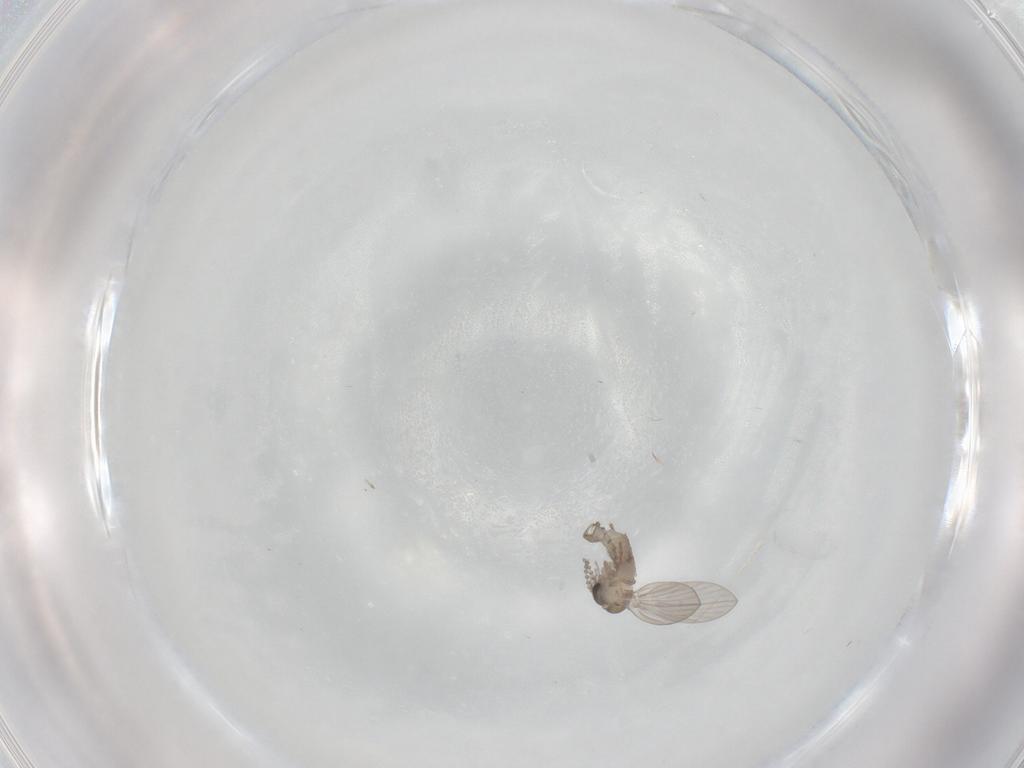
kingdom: Animalia
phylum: Arthropoda
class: Insecta
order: Diptera
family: Psychodidae
